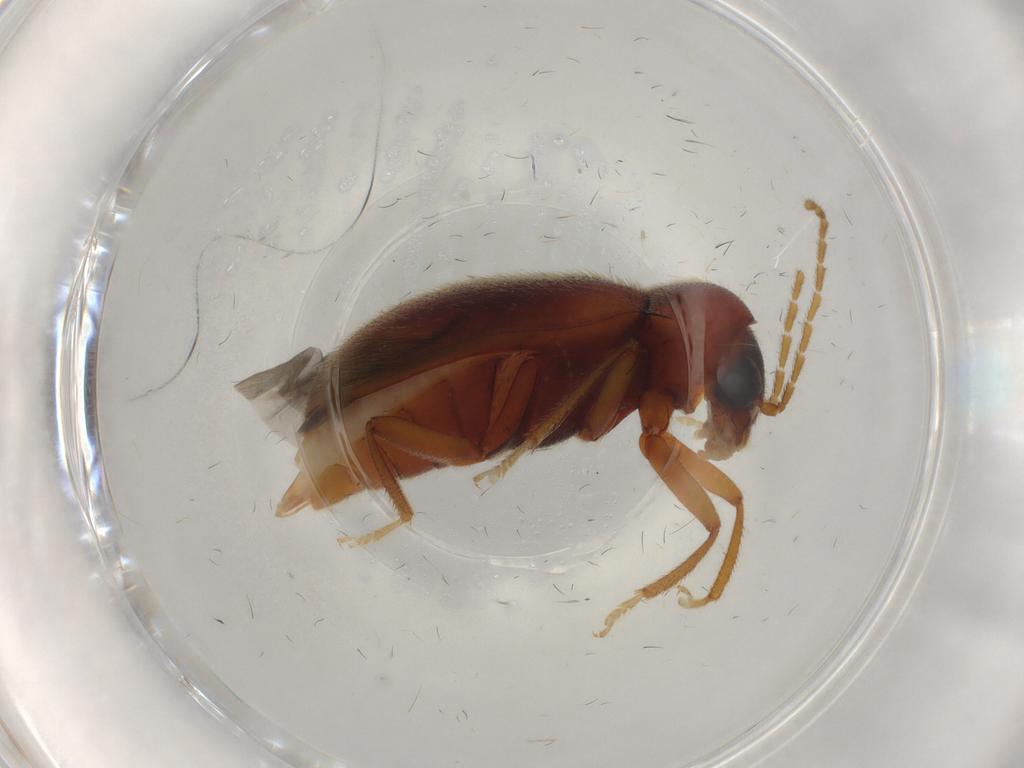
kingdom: Animalia
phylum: Arthropoda
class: Insecta
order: Coleoptera
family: Ptilodactylidae
